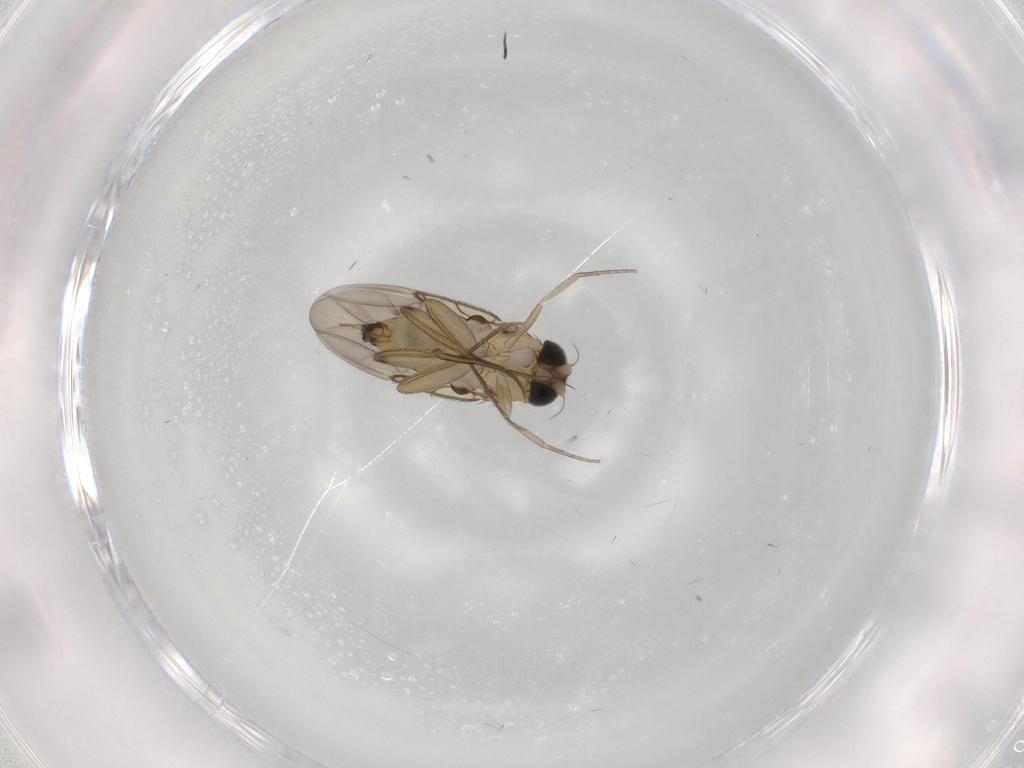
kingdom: Animalia
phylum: Arthropoda
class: Insecta
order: Diptera
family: Phoridae
